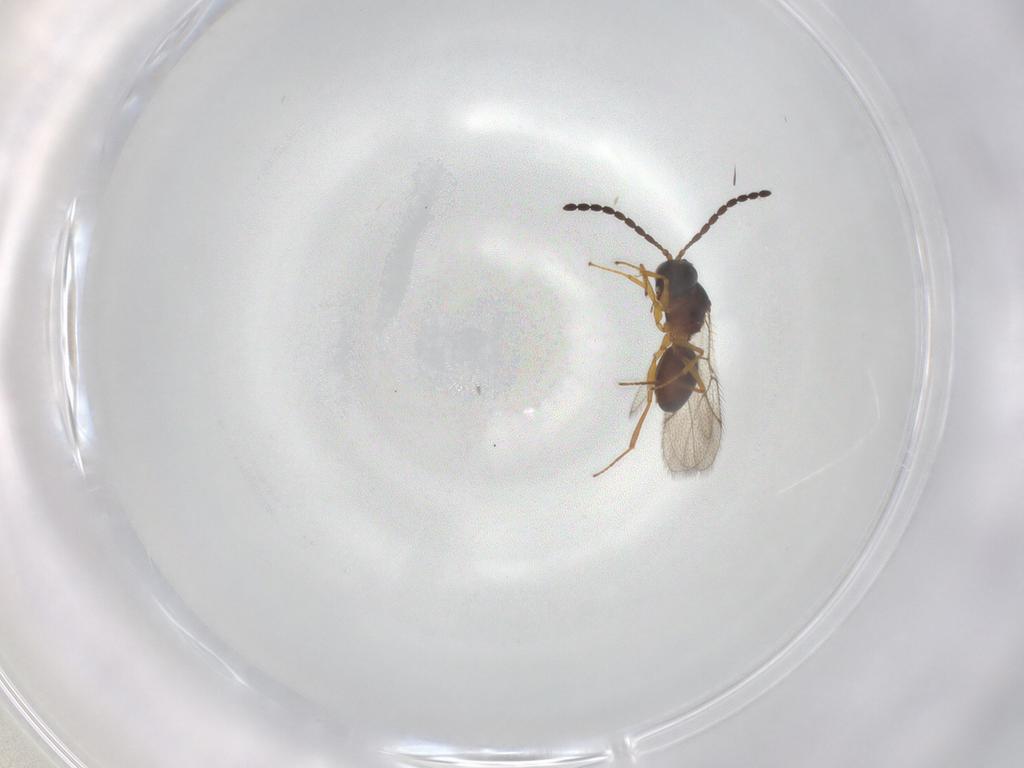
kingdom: Animalia
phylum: Arthropoda
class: Insecta
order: Hymenoptera
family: Figitidae
